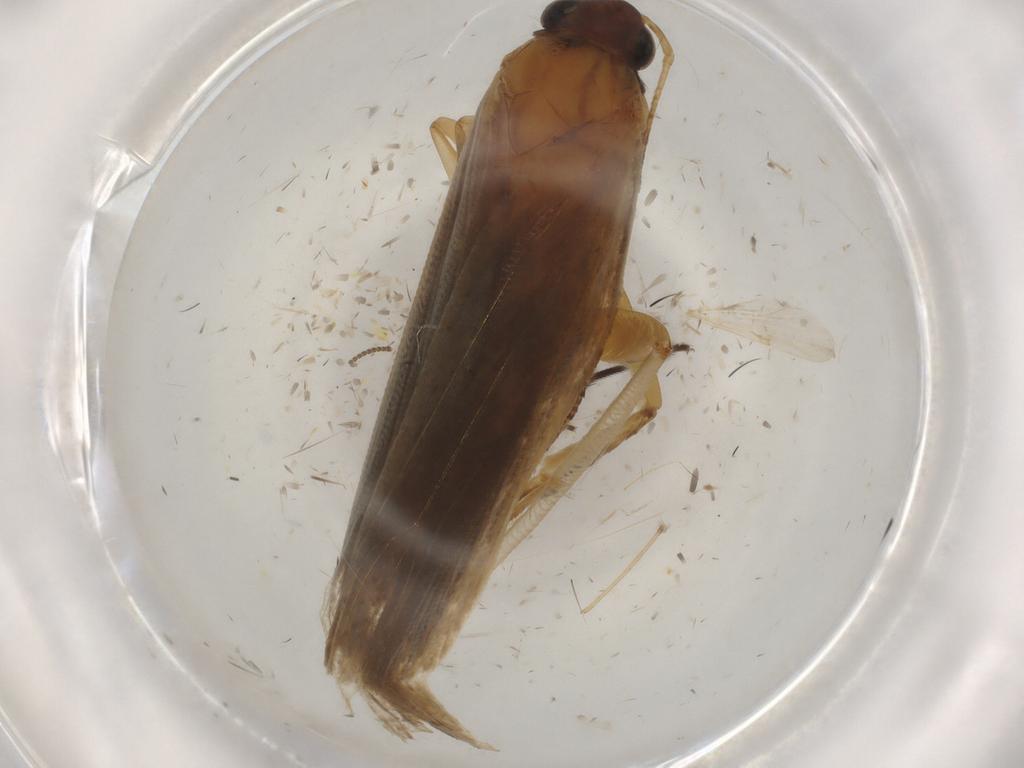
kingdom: Animalia
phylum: Arthropoda
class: Insecta
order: Lepidoptera
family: Gelechiidae
